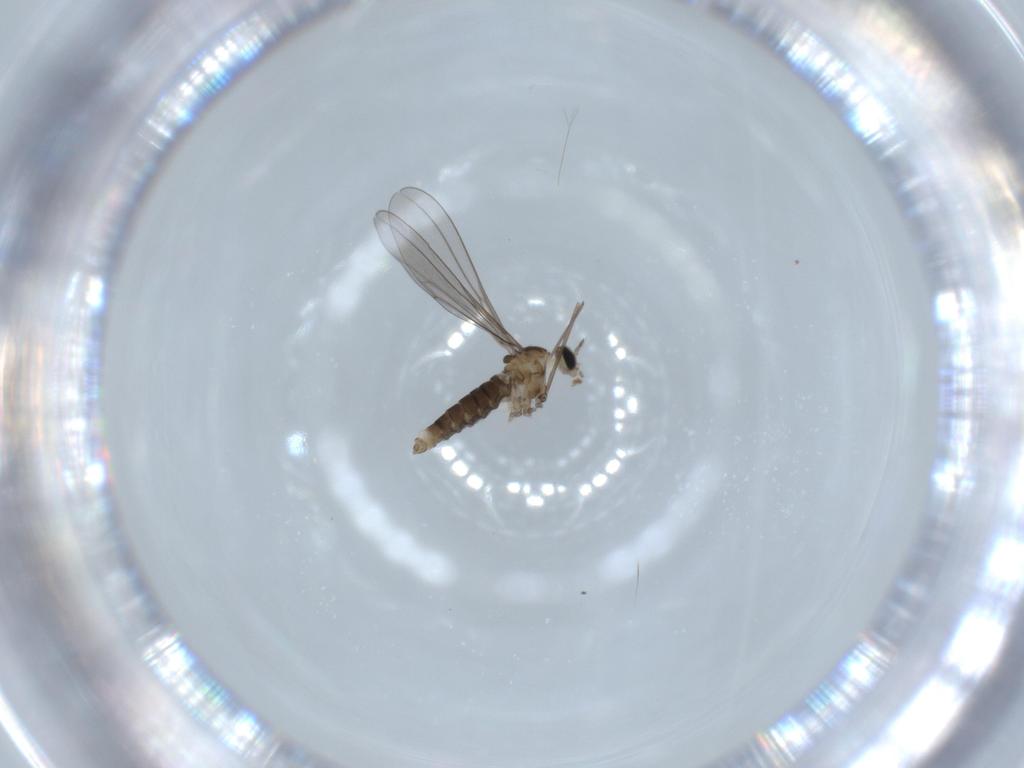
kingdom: Animalia
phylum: Arthropoda
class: Insecta
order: Diptera
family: Cecidomyiidae
